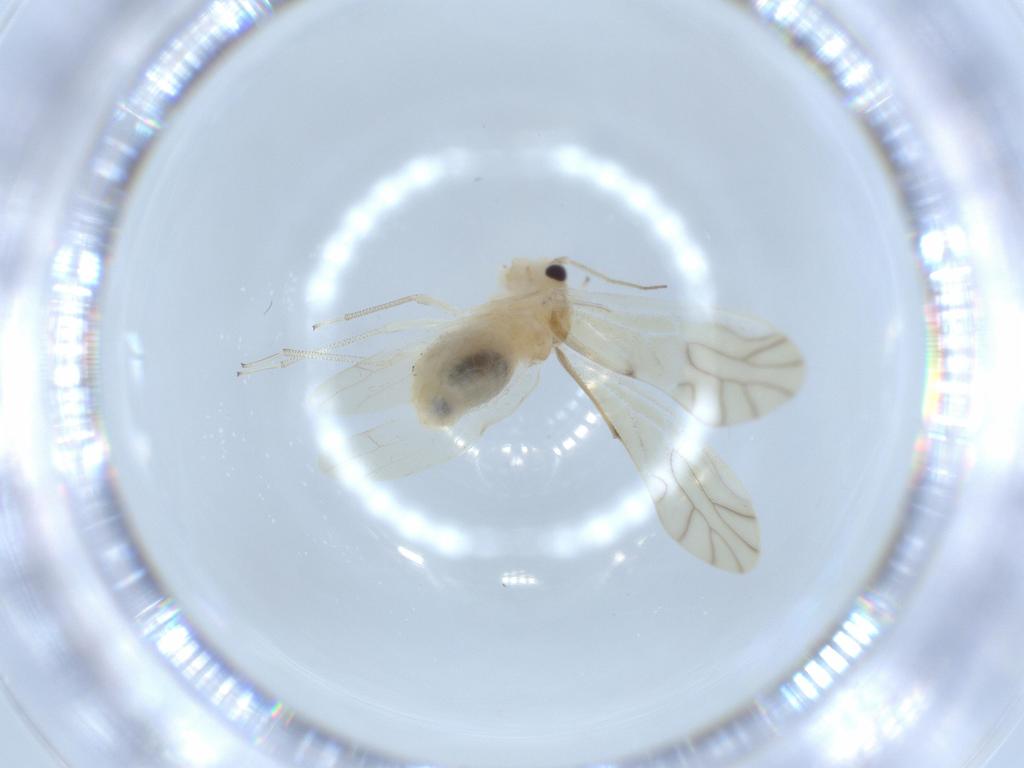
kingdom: Animalia
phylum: Arthropoda
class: Insecta
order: Psocodea
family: Caeciliusidae
